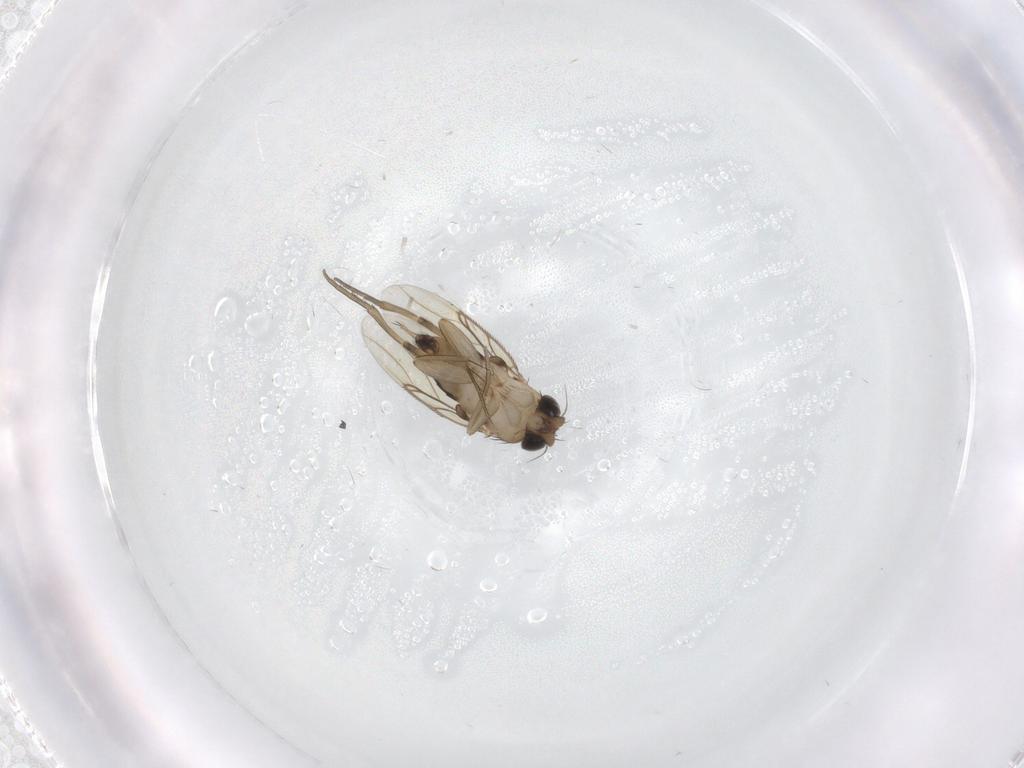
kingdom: Animalia
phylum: Arthropoda
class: Insecta
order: Diptera
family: Phoridae
